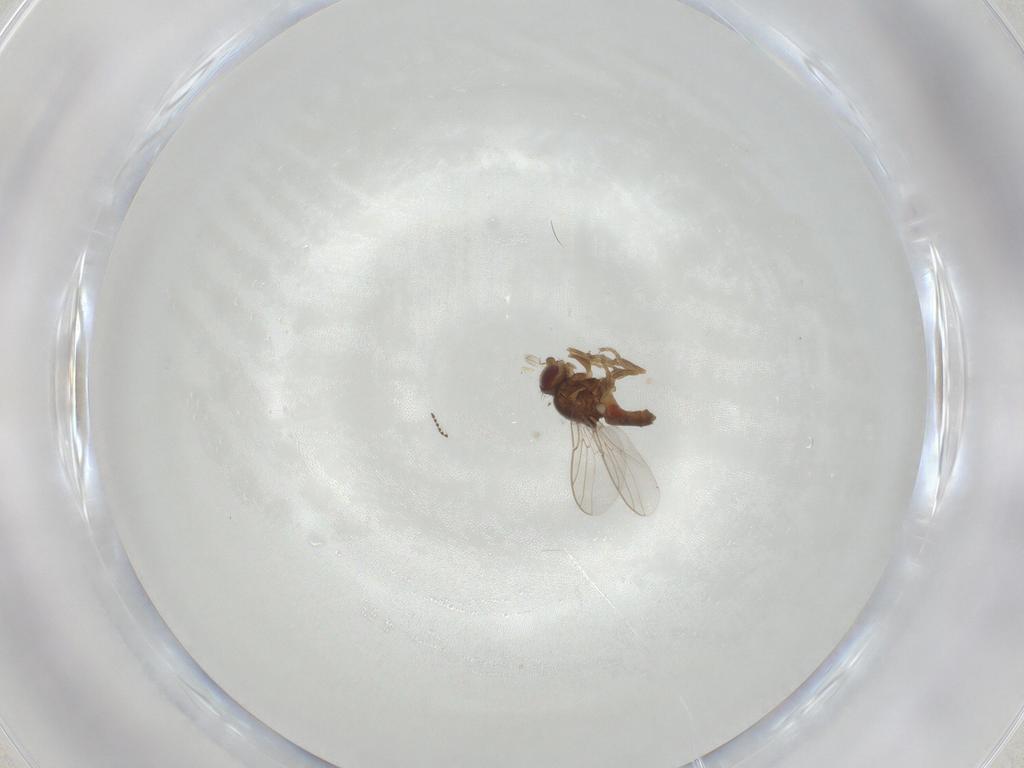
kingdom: Animalia
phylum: Arthropoda
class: Insecta
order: Diptera
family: Chloropidae
